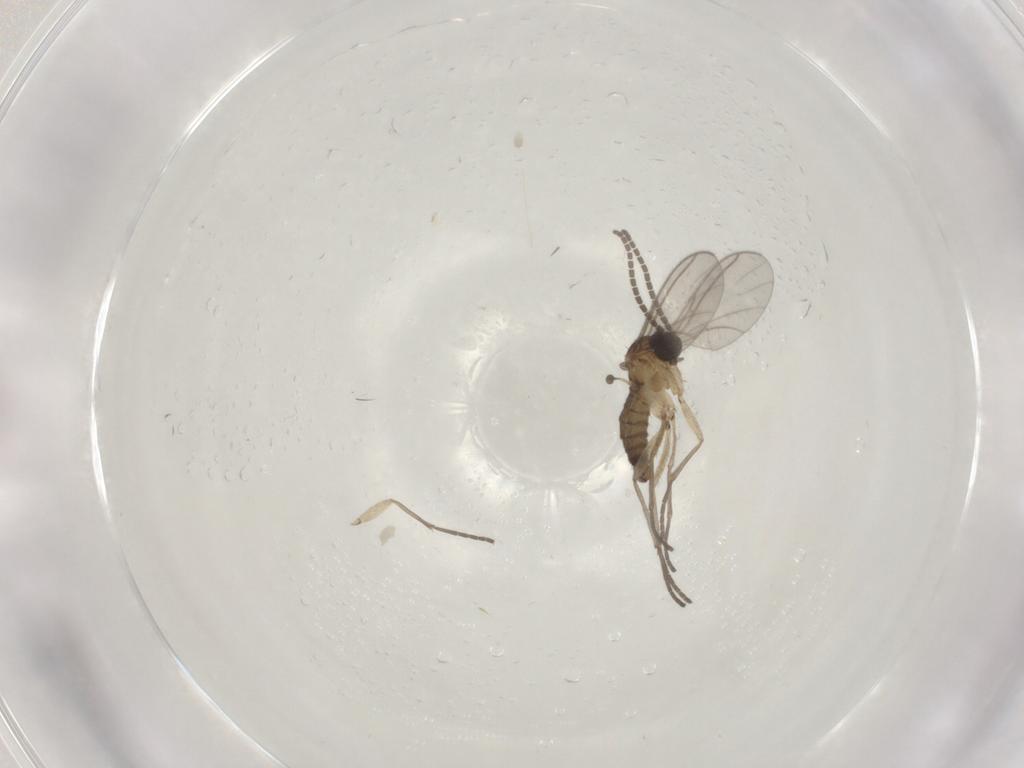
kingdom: Animalia
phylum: Arthropoda
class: Insecta
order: Diptera
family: Sciaridae
